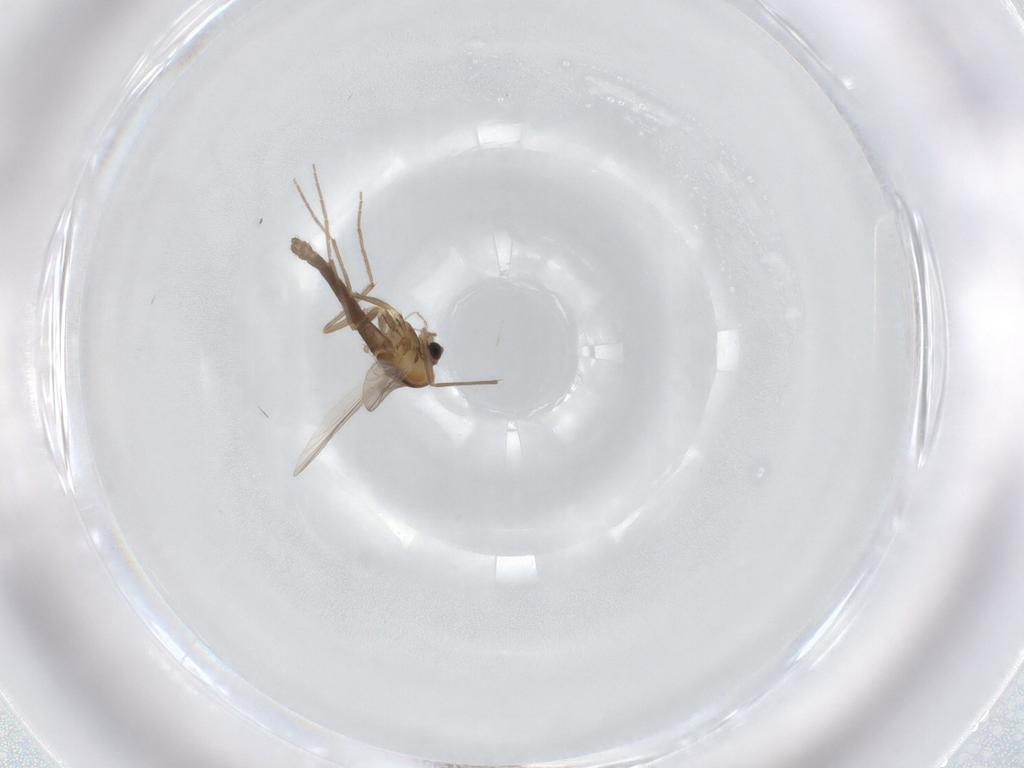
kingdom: Animalia
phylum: Arthropoda
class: Insecta
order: Diptera
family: Chironomidae
